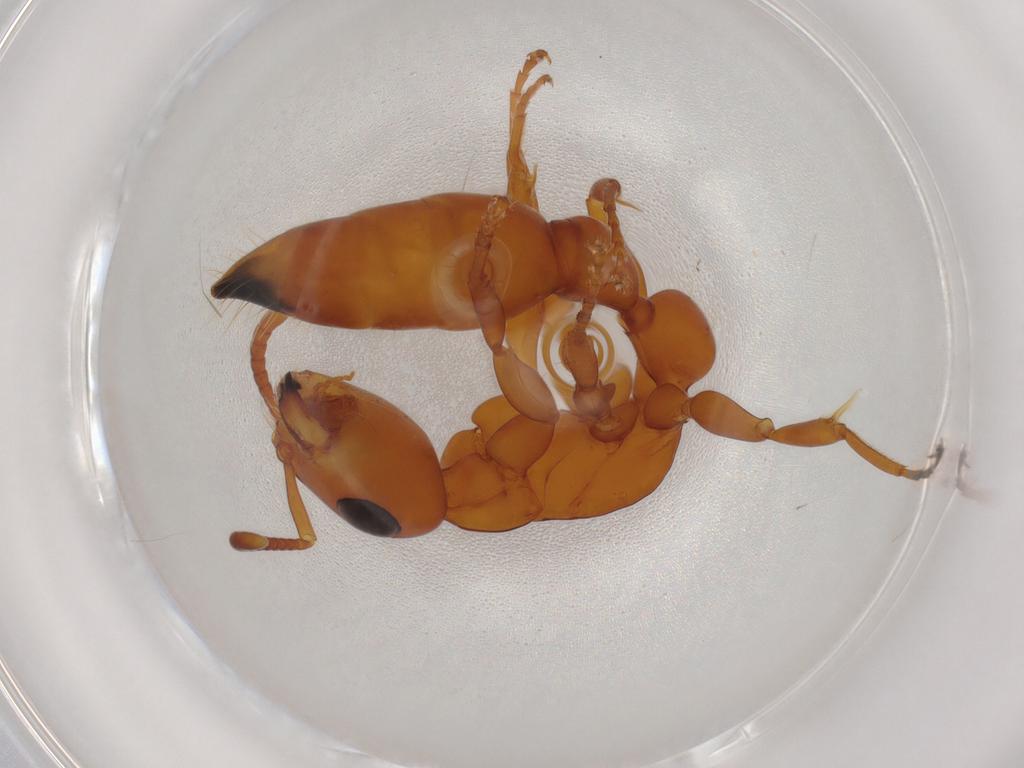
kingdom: Animalia
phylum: Arthropoda
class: Insecta
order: Hymenoptera
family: Formicidae
